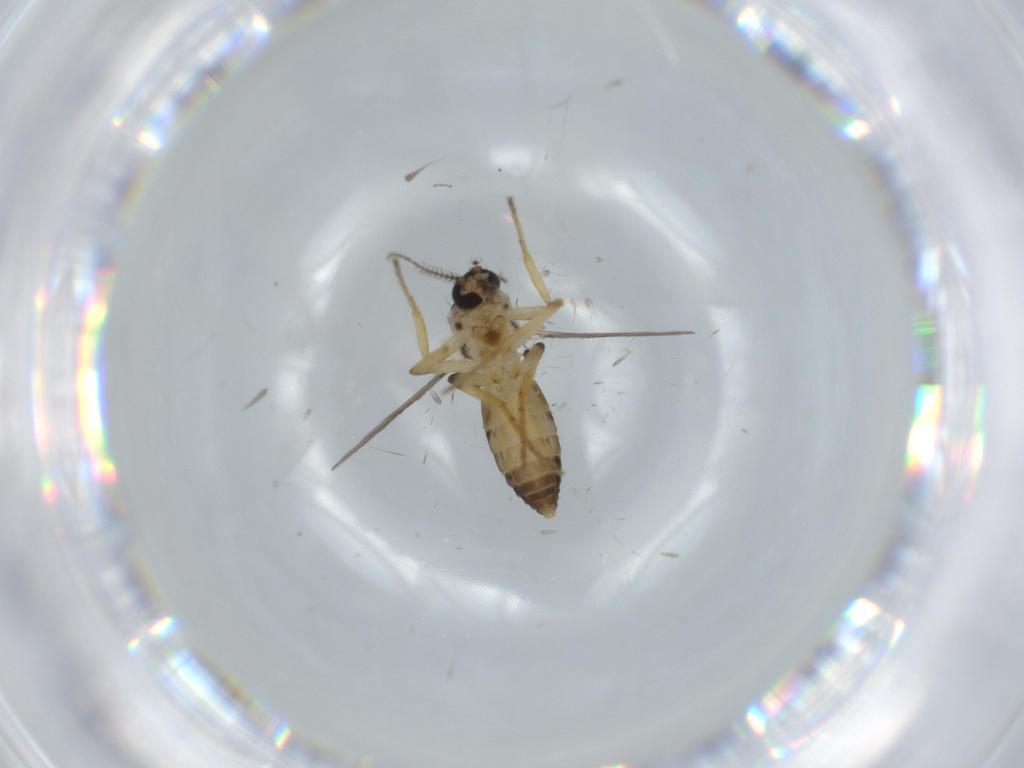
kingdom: Animalia
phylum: Arthropoda
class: Insecta
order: Diptera
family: Ceratopogonidae
